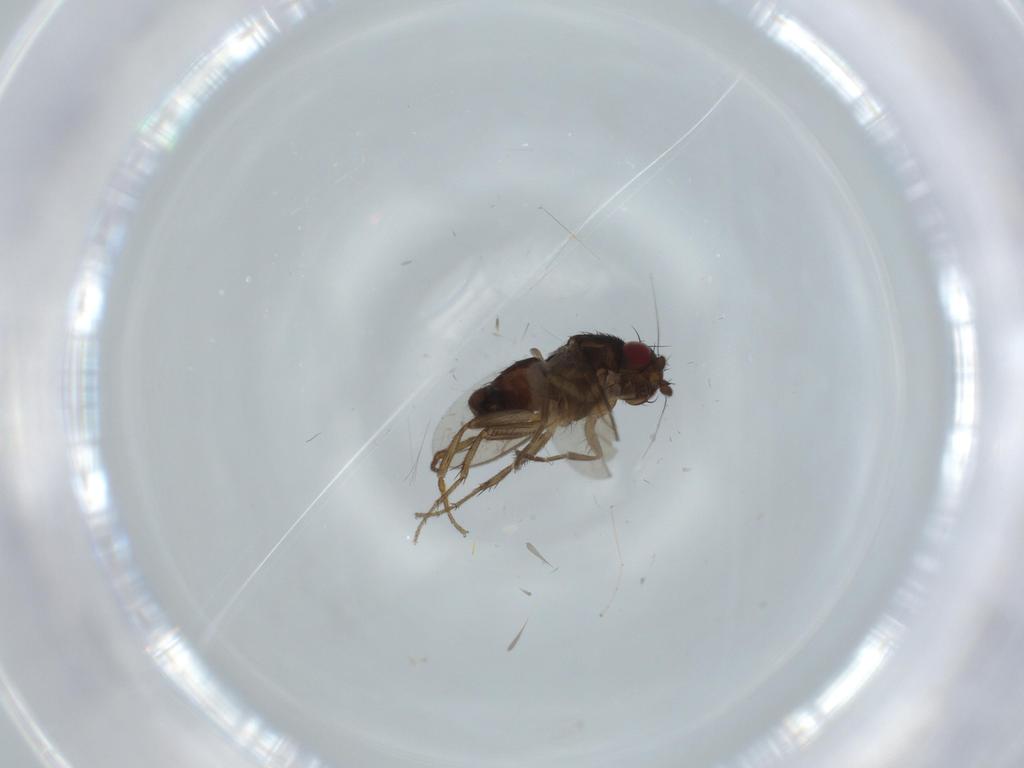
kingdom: Animalia
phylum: Arthropoda
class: Insecta
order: Diptera
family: Sphaeroceridae
